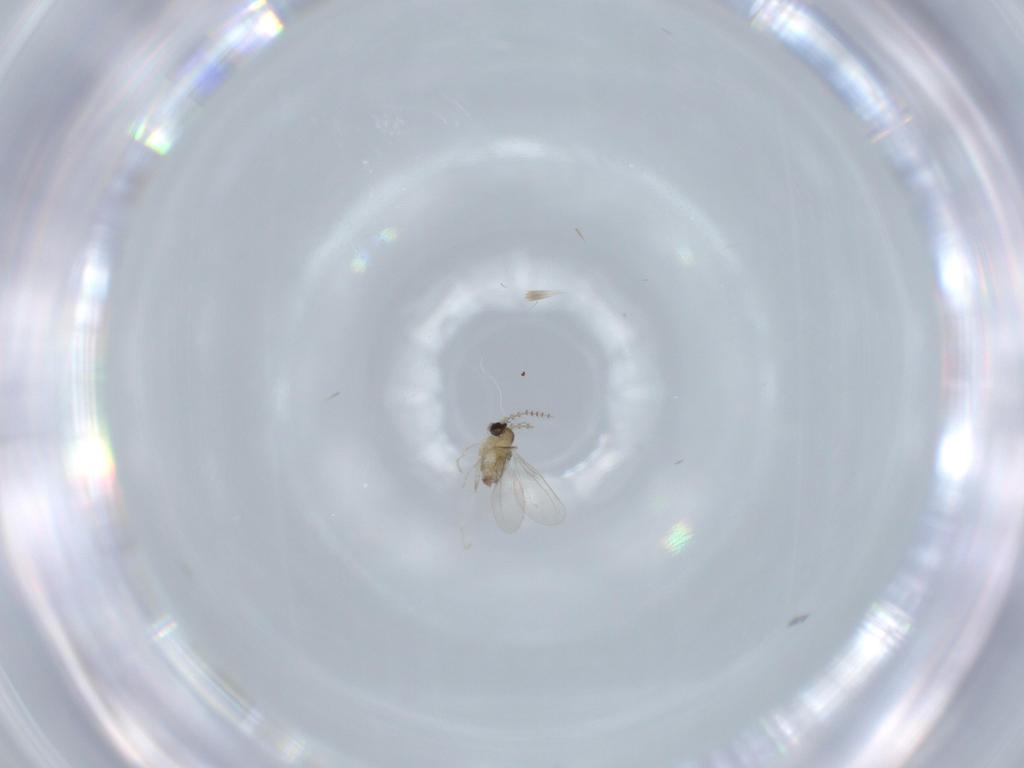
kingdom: Animalia
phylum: Arthropoda
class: Insecta
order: Diptera
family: Cecidomyiidae
